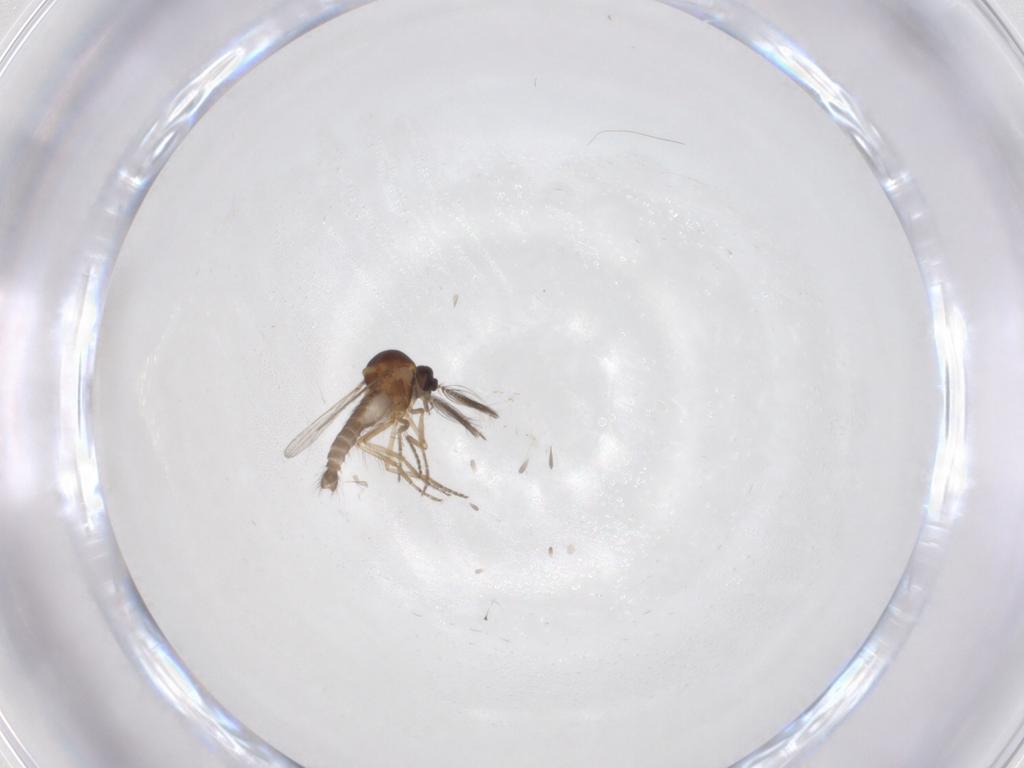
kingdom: Animalia
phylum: Arthropoda
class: Insecta
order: Diptera
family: Ceratopogonidae
